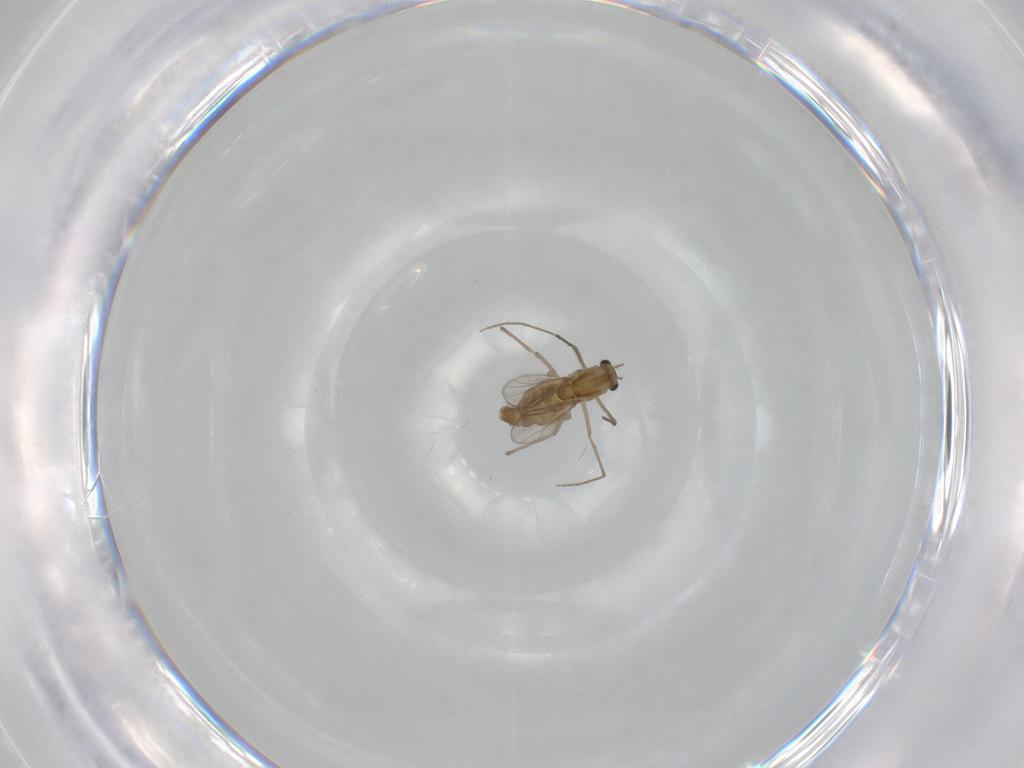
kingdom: Animalia
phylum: Arthropoda
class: Insecta
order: Diptera
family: Chironomidae
